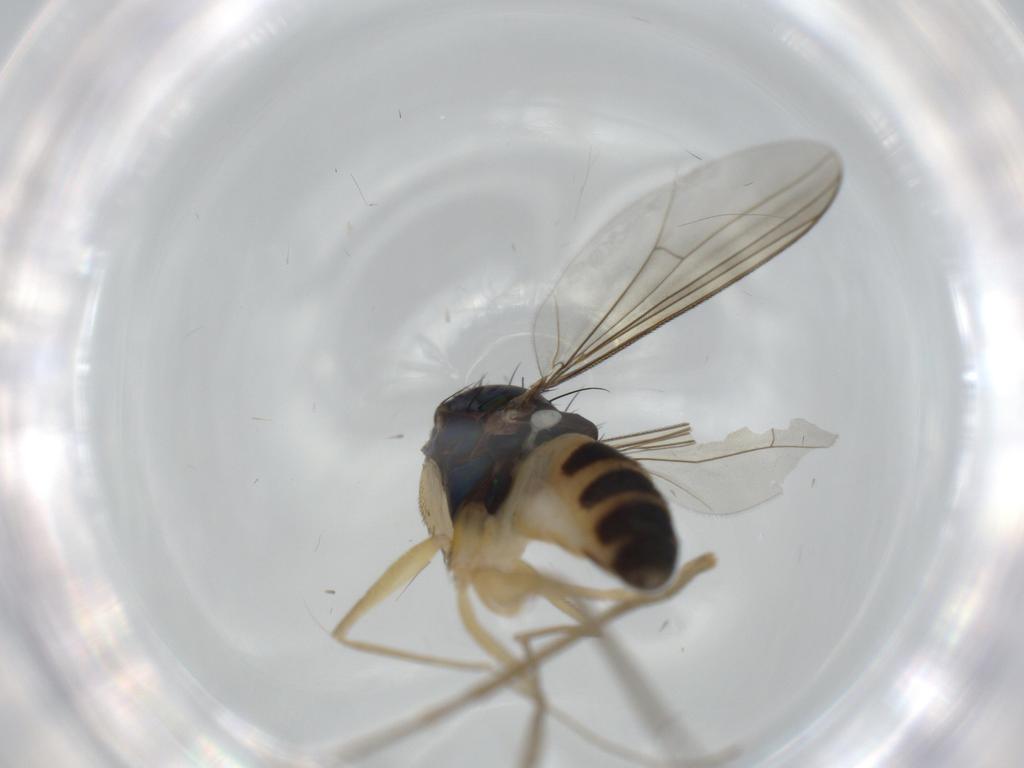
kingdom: Animalia
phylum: Arthropoda
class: Insecta
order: Diptera
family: Dolichopodidae
